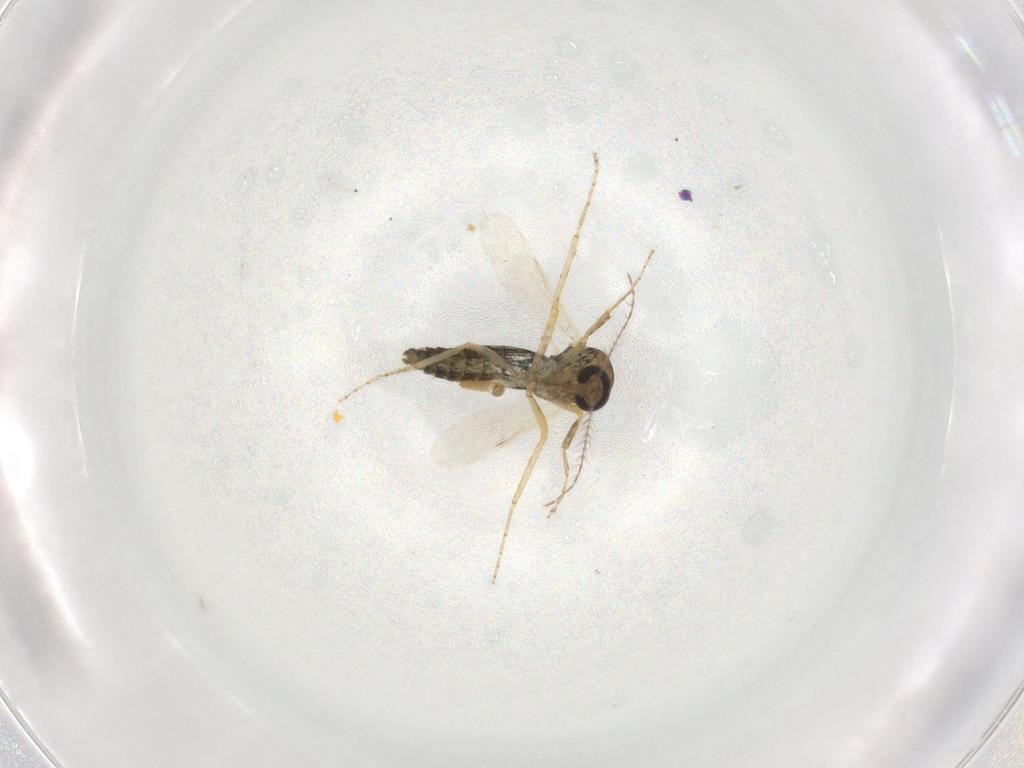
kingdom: Animalia
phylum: Arthropoda
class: Insecta
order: Diptera
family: Ceratopogonidae
